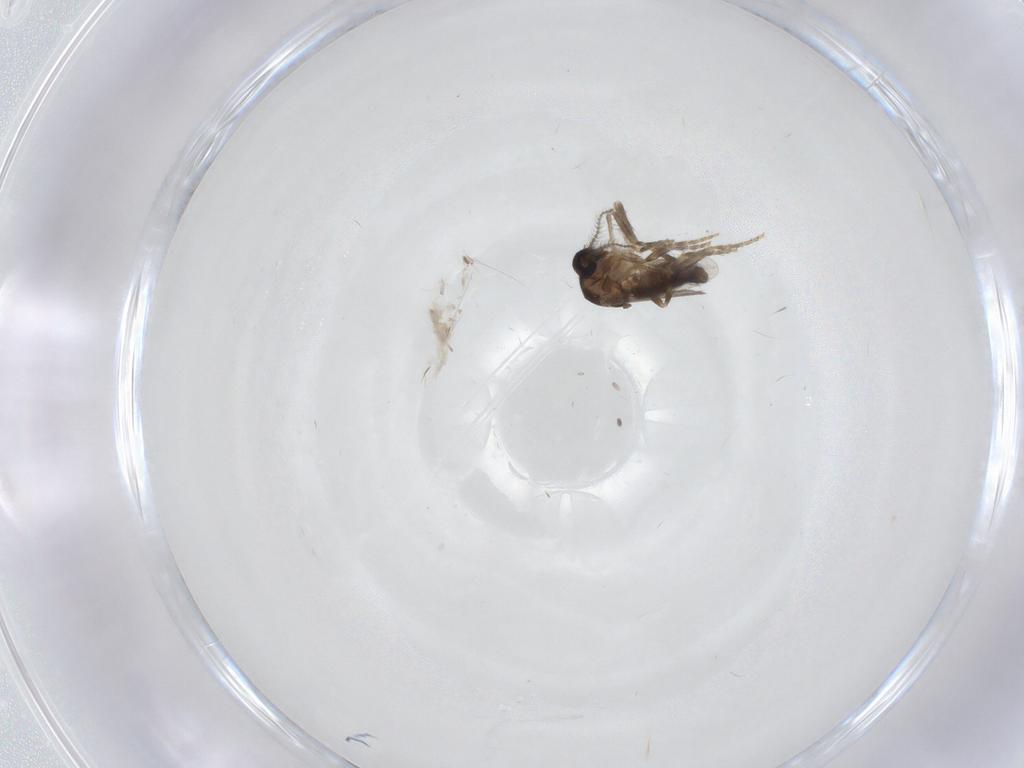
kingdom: Animalia
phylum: Arthropoda
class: Insecta
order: Diptera
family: Ephydridae
